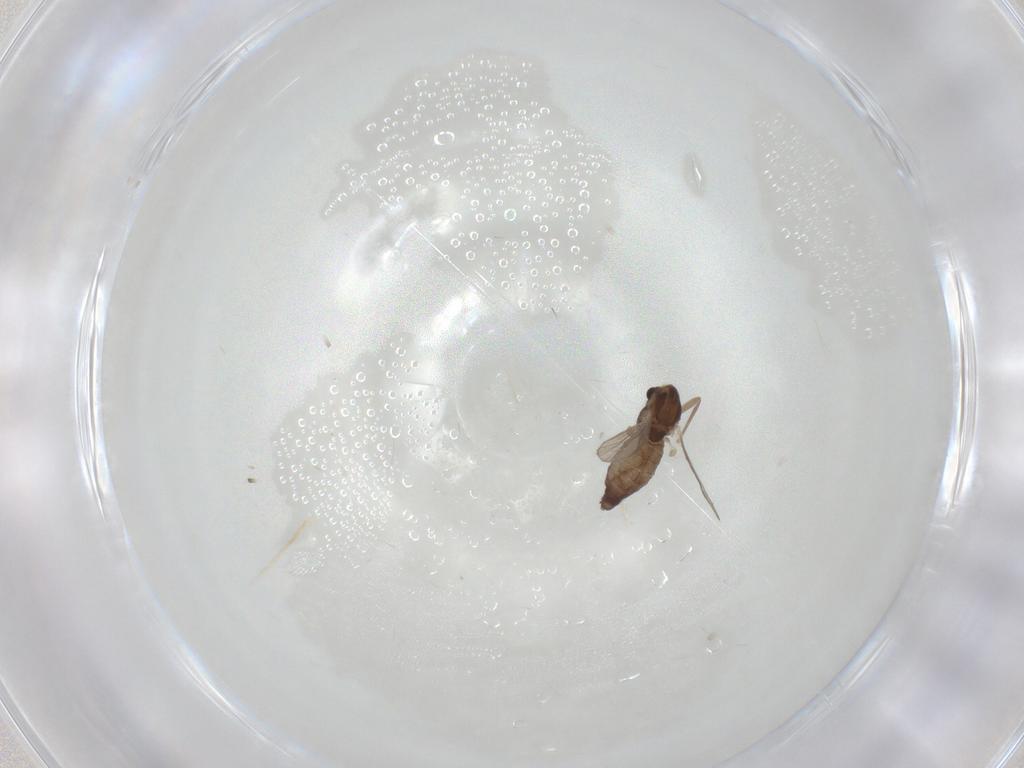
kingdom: Animalia
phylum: Arthropoda
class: Insecta
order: Diptera
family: Chironomidae
